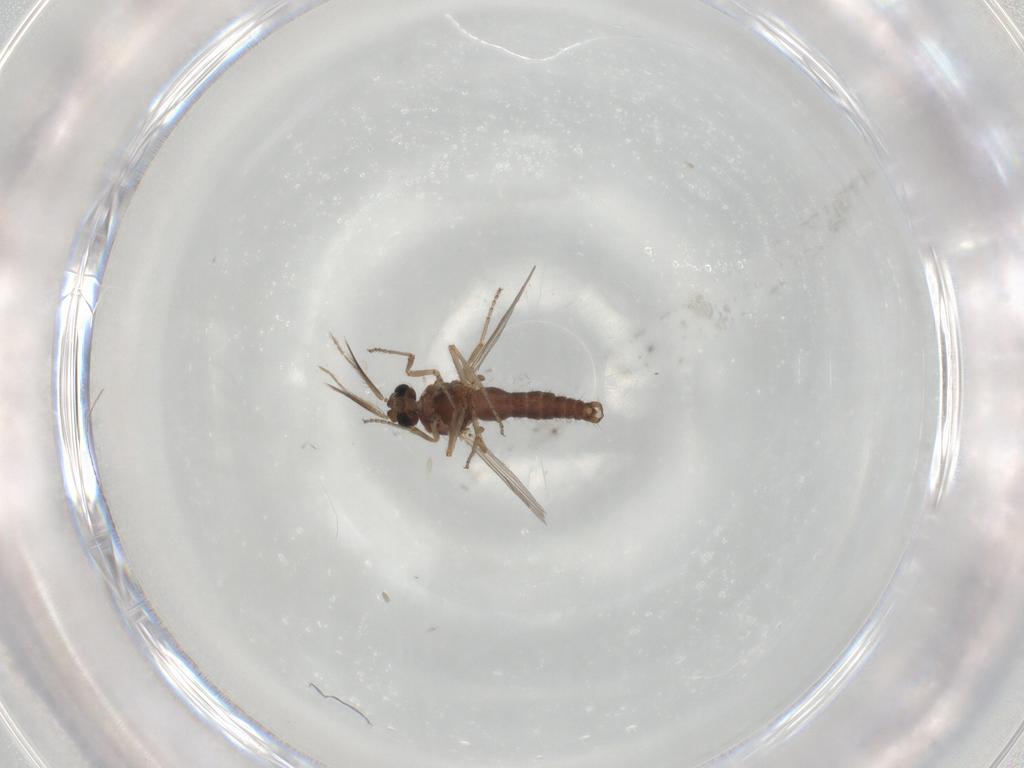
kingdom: Animalia
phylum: Arthropoda
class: Insecta
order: Diptera
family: Ceratopogonidae
